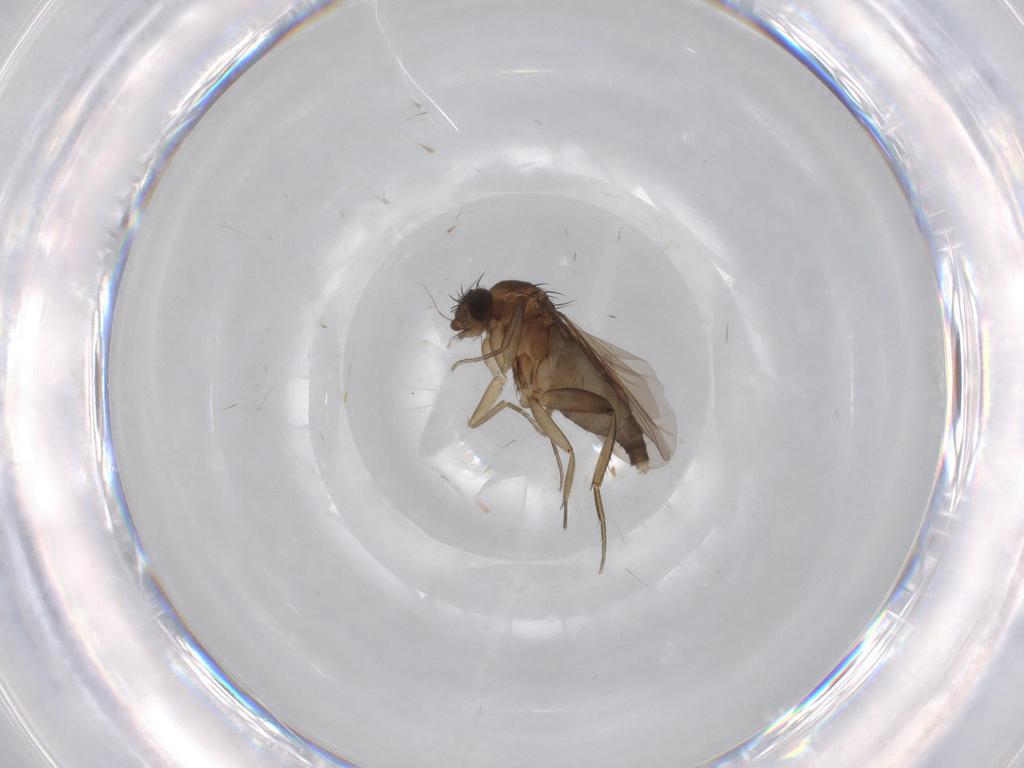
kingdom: Animalia
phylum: Arthropoda
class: Insecta
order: Diptera
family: Phoridae
